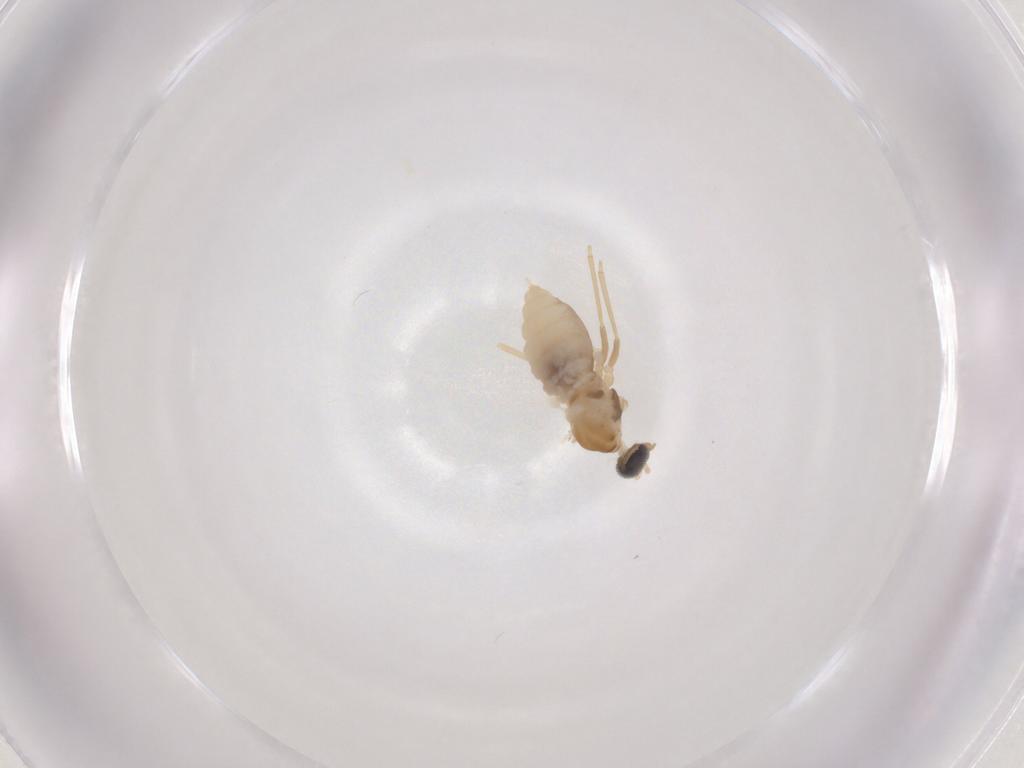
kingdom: Animalia
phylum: Arthropoda
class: Insecta
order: Diptera
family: Cecidomyiidae
